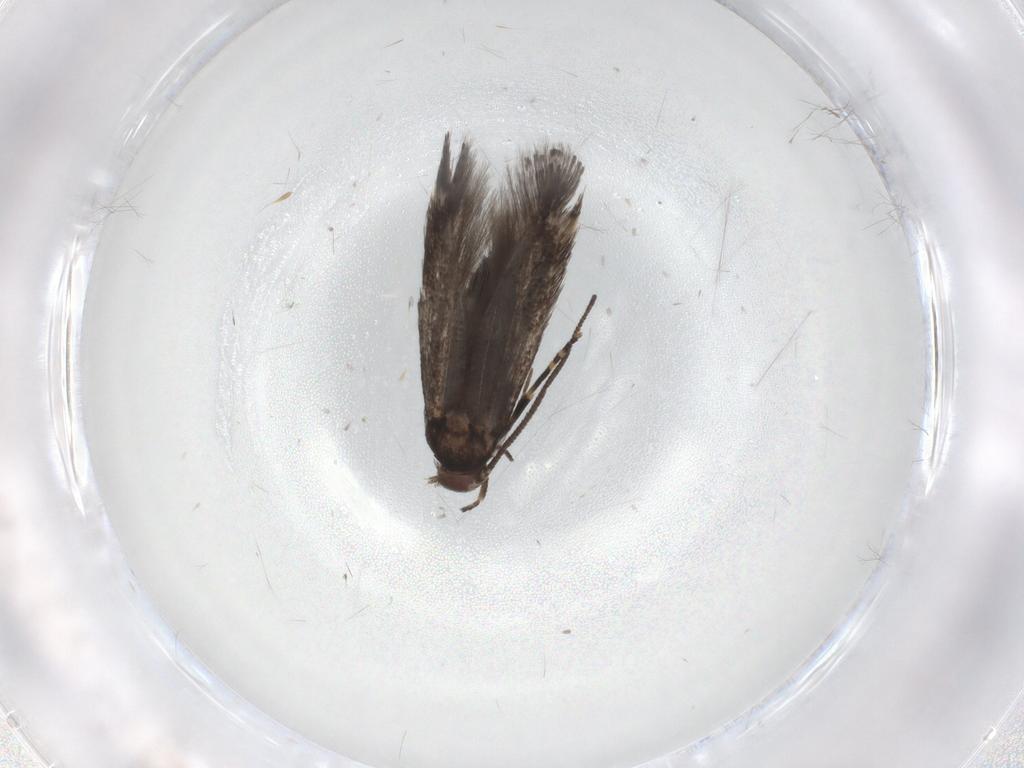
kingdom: Animalia
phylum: Arthropoda
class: Insecta
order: Lepidoptera
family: Elachistidae
